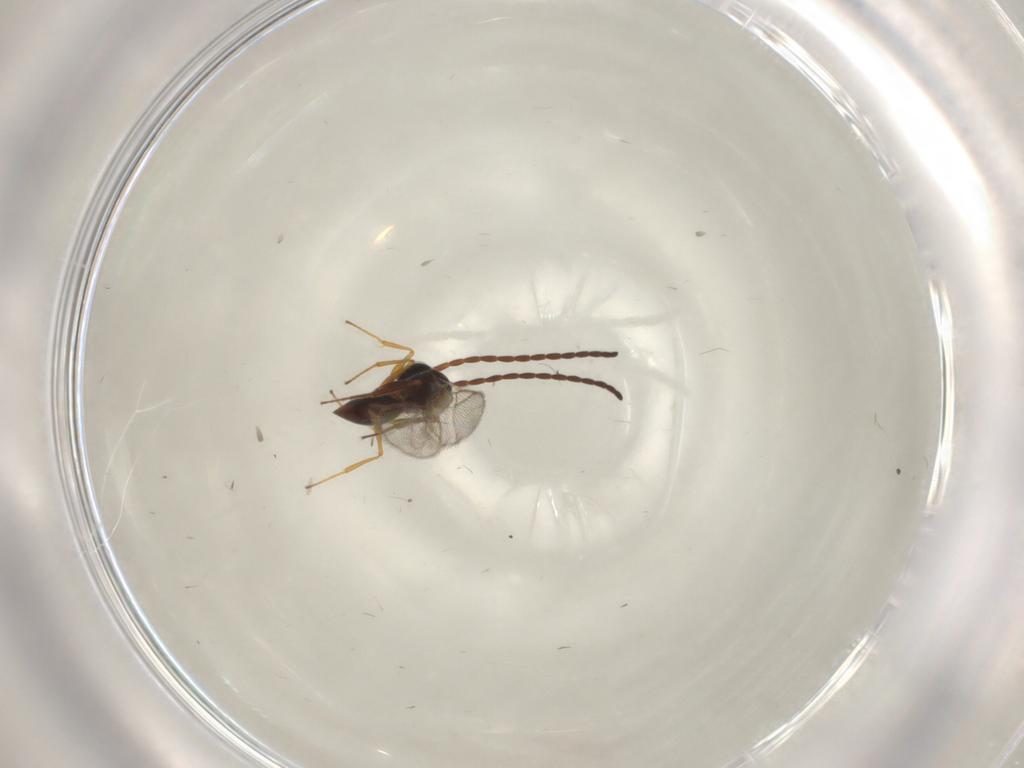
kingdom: Animalia
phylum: Arthropoda
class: Insecta
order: Hymenoptera
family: Figitidae
